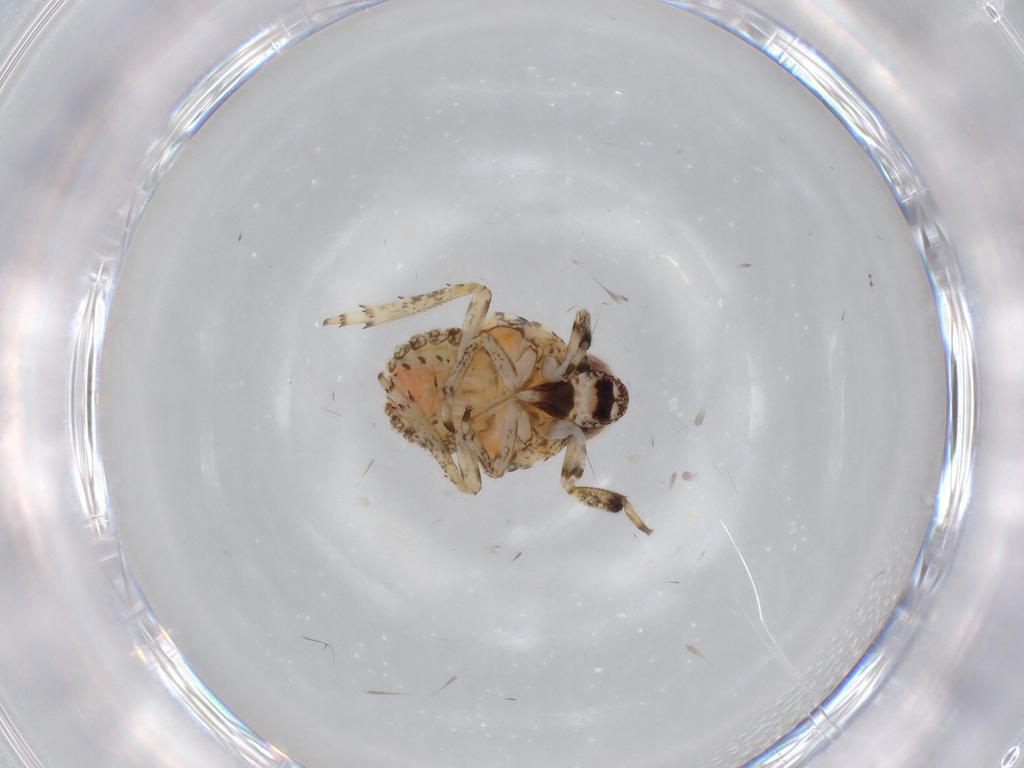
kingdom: Animalia
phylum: Arthropoda
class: Insecta
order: Hemiptera
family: Issidae
